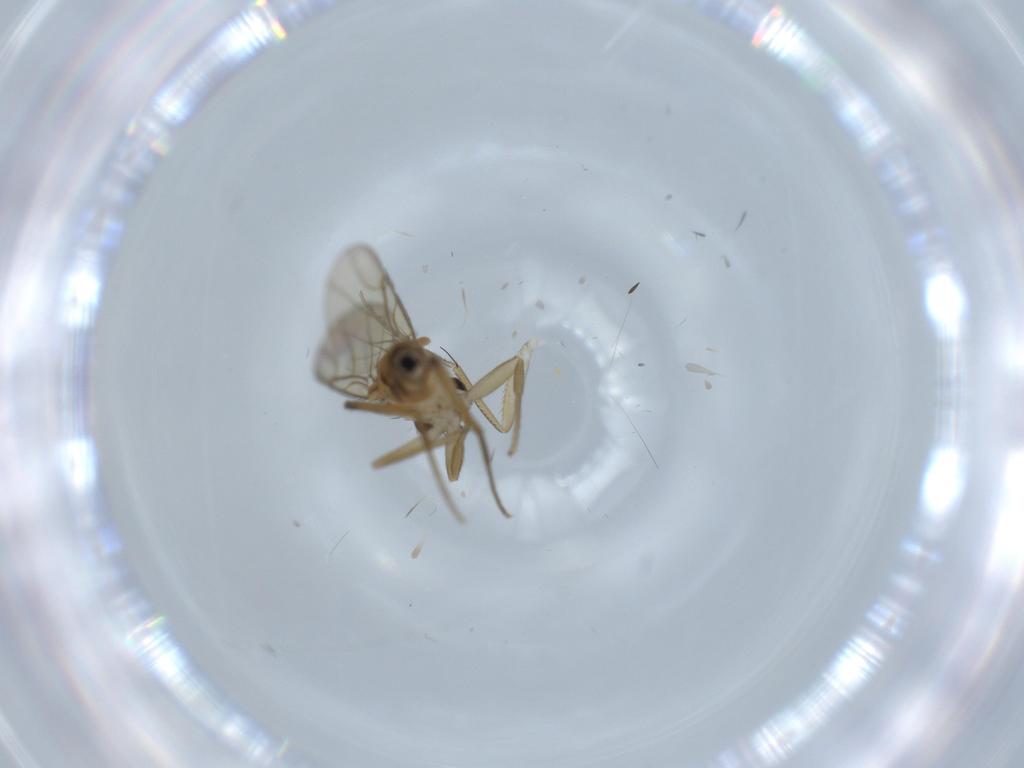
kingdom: Animalia
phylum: Arthropoda
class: Insecta
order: Diptera
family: Phoridae
